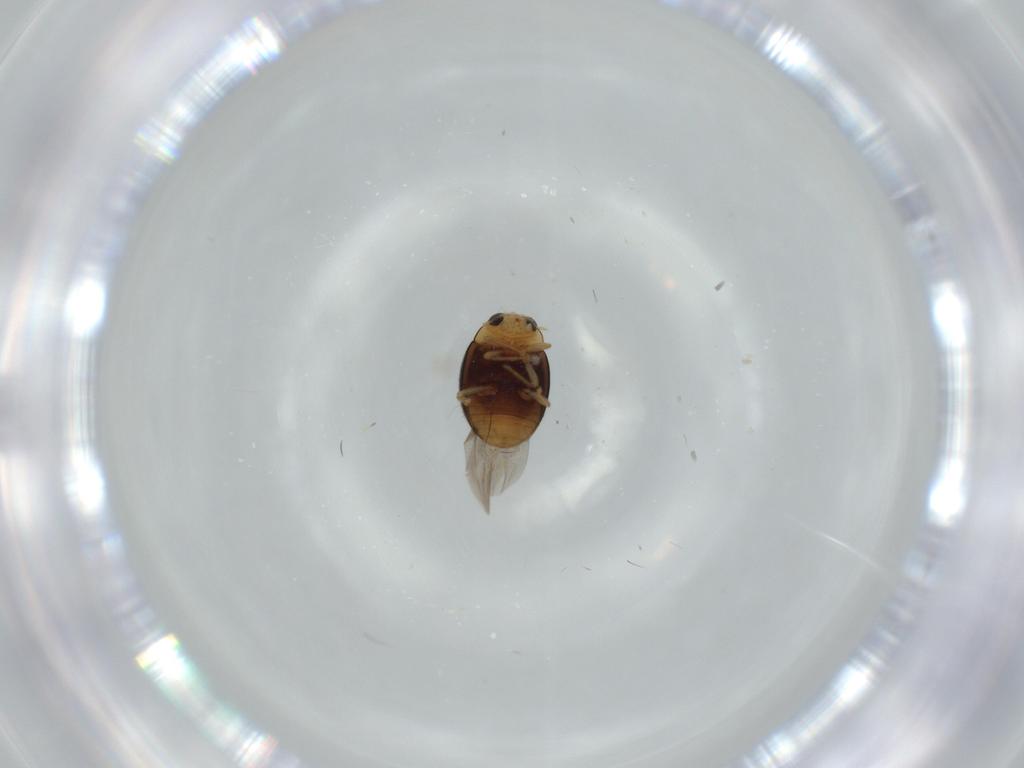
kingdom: Animalia
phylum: Arthropoda
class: Insecta
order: Coleoptera
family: Coccinellidae
